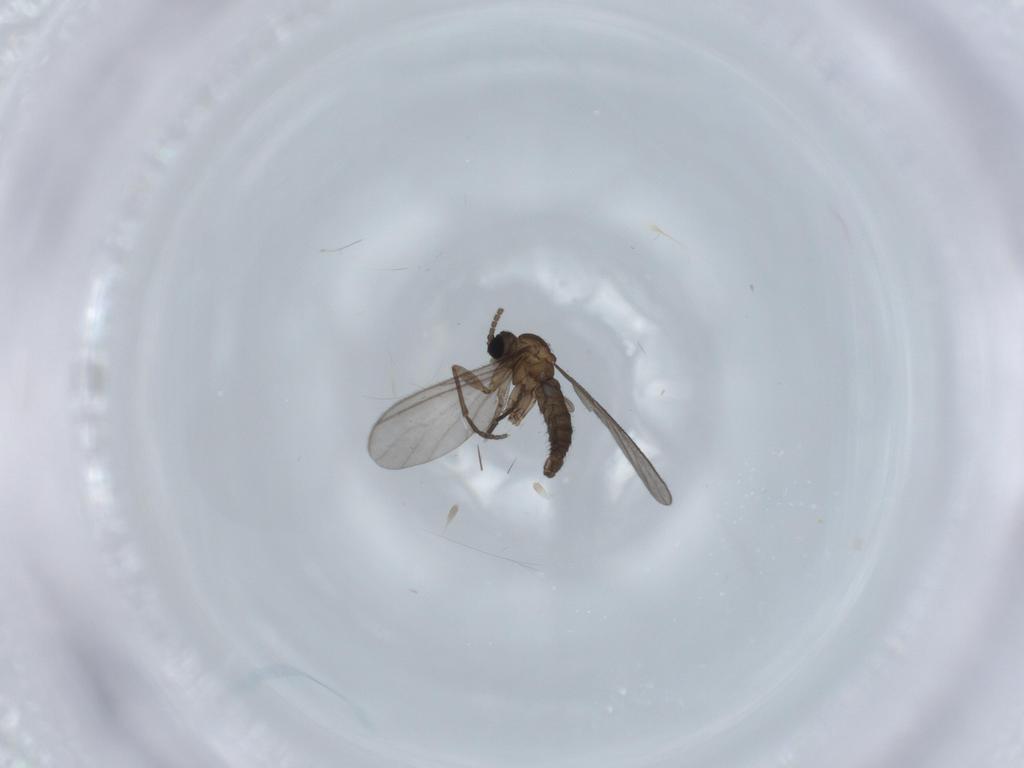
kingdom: Animalia
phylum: Arthropoda
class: Insecta
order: Diptera
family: Sciaridae
